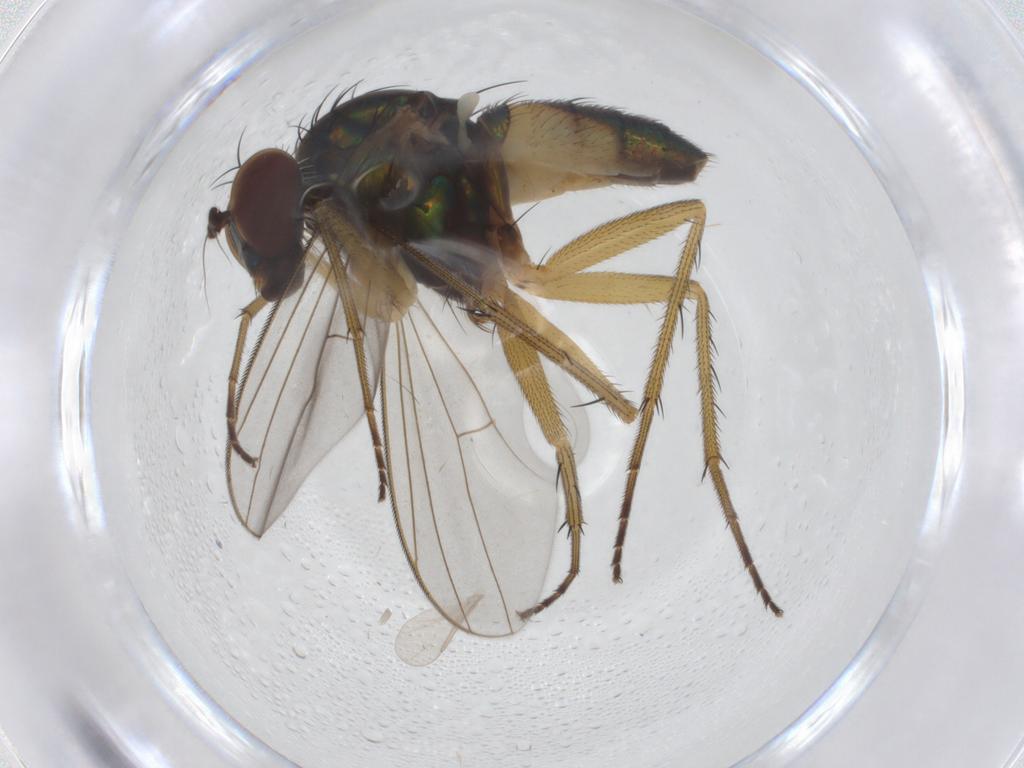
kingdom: Animalia
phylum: Arthropoda
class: Insecta
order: Diptera
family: Dolichopodidae
